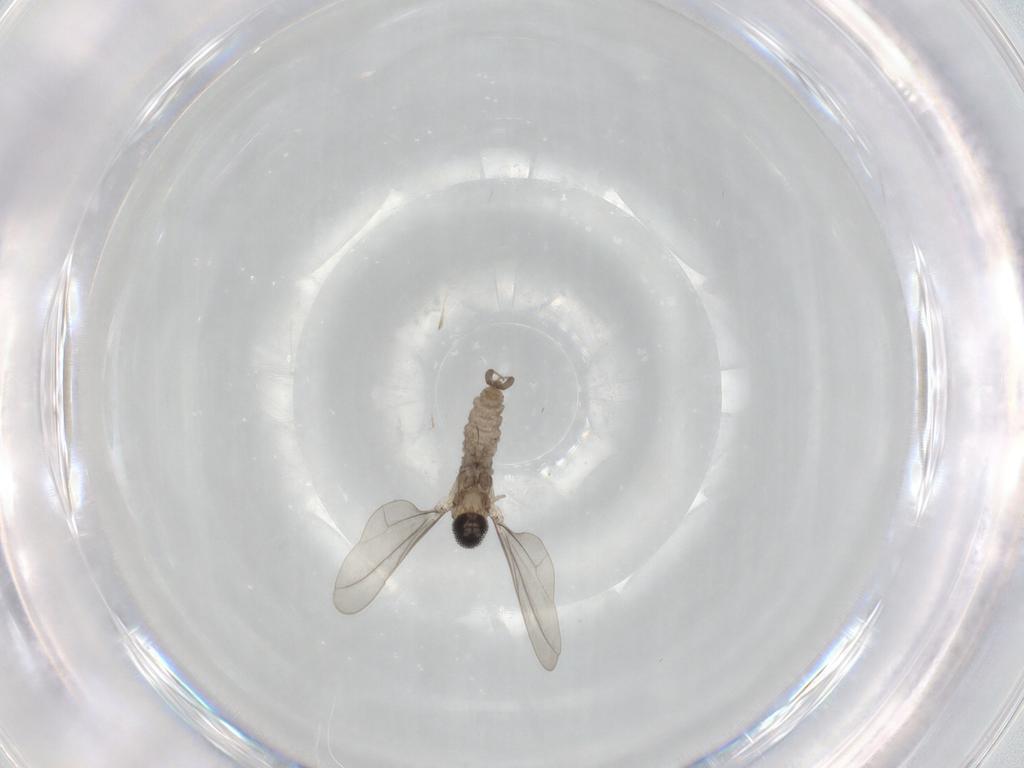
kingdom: Animalia
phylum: Arthropoda
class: Insecta
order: Diptera
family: Cecidomyiidae
